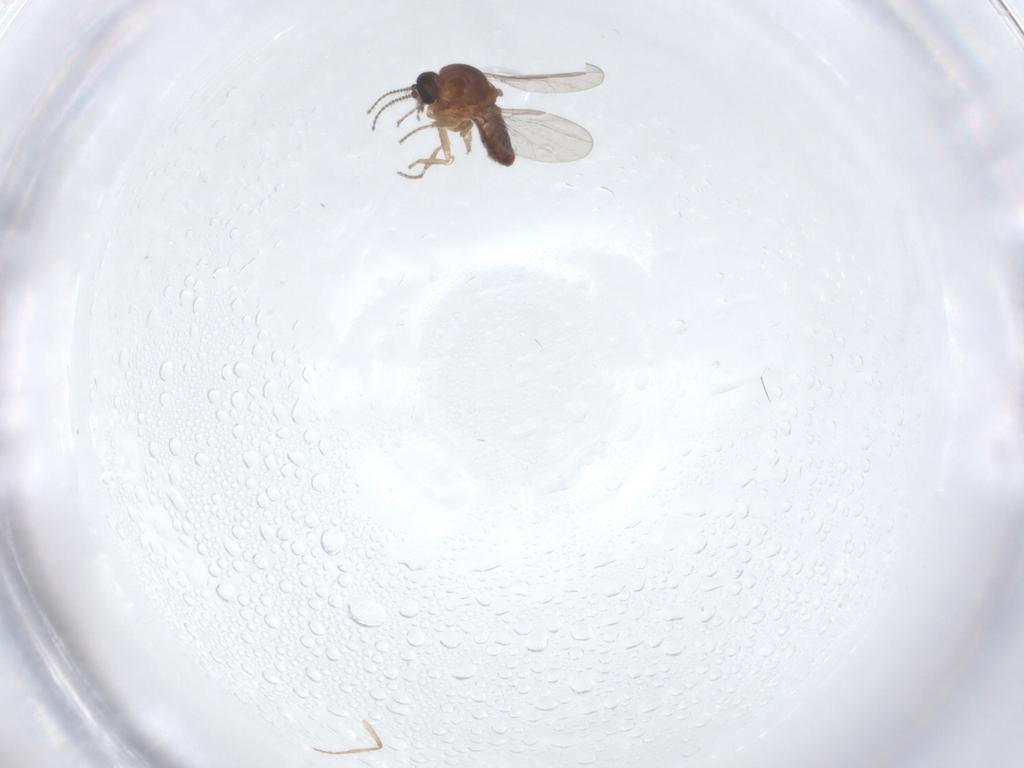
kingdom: Animalia
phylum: Arthropoda
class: Insecta
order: Diptera
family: Chironomidae
